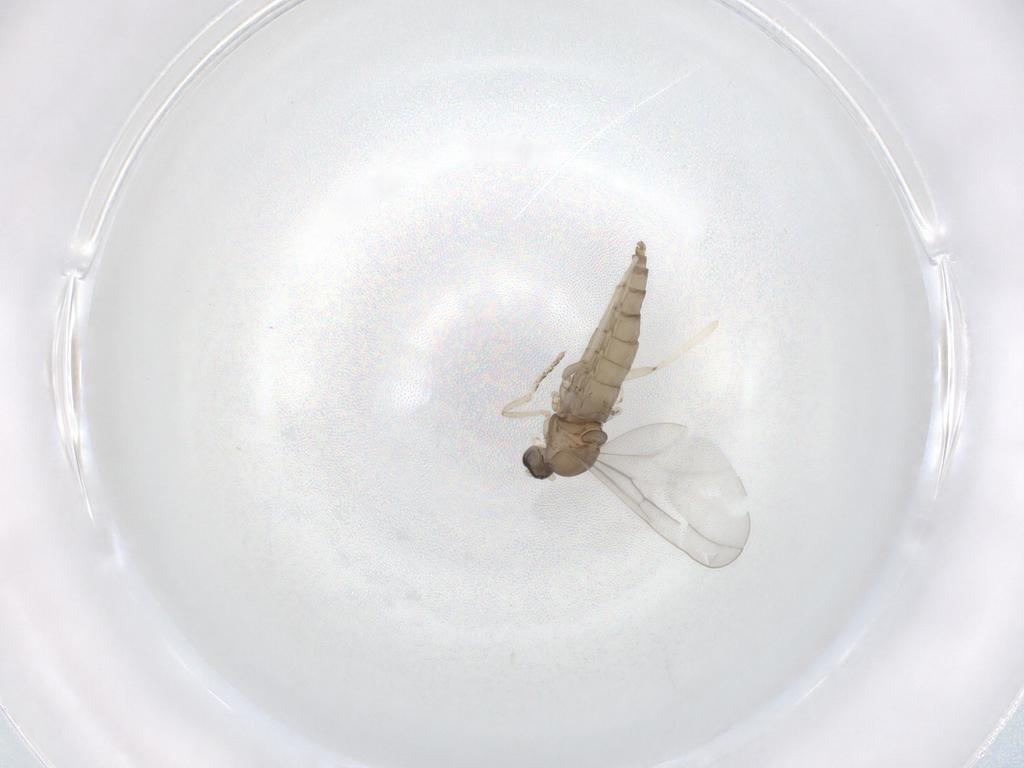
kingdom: Animalia
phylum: Arthropoda
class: Insecta
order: Diptera
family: Cecidomyiidae
